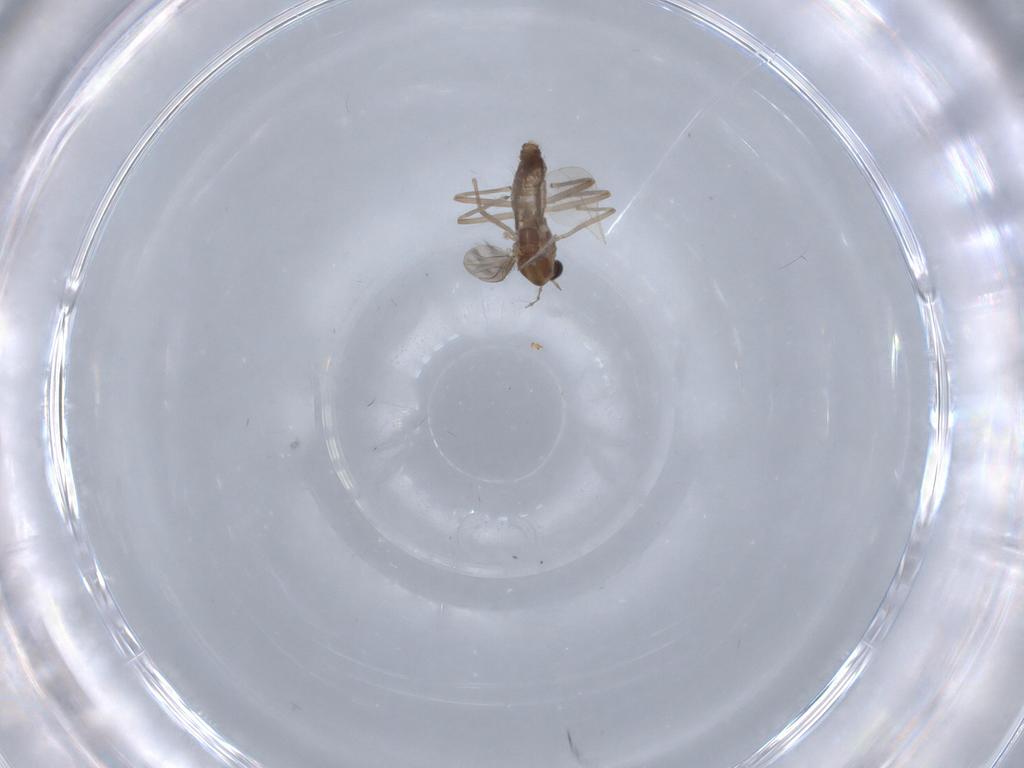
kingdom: Animalia
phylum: Arthropoda
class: Insecta
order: Diptera
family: Chironomidae
